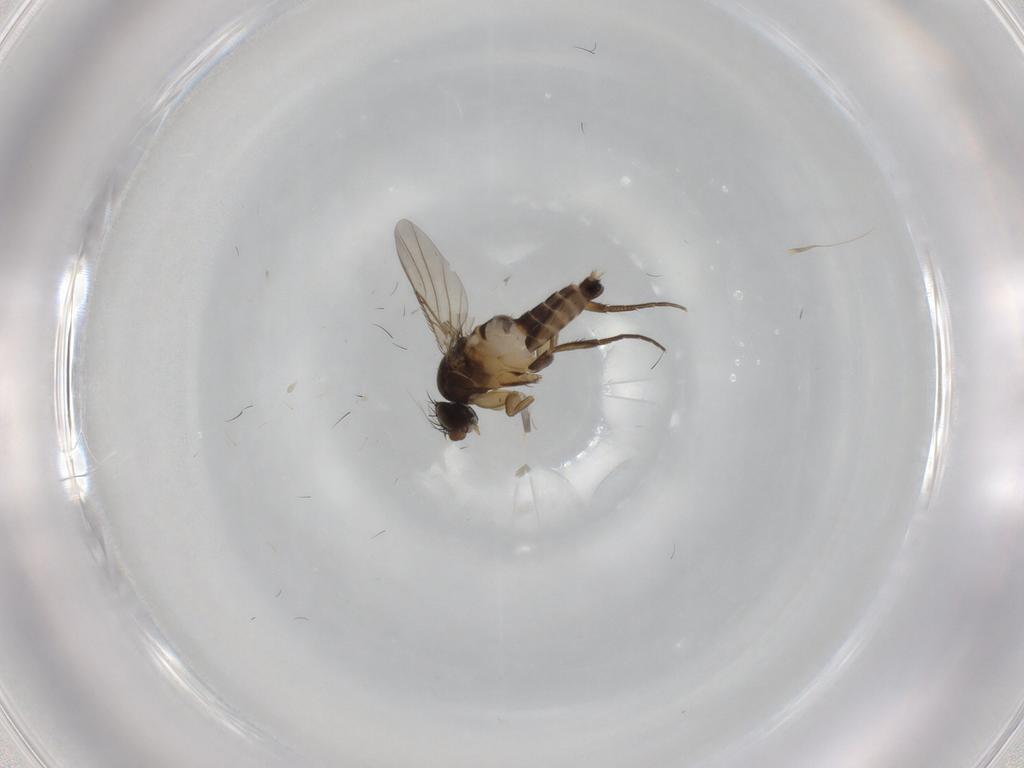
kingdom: Animalia
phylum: Arthropoda
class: Insecta
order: Diptera
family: Phoridae
